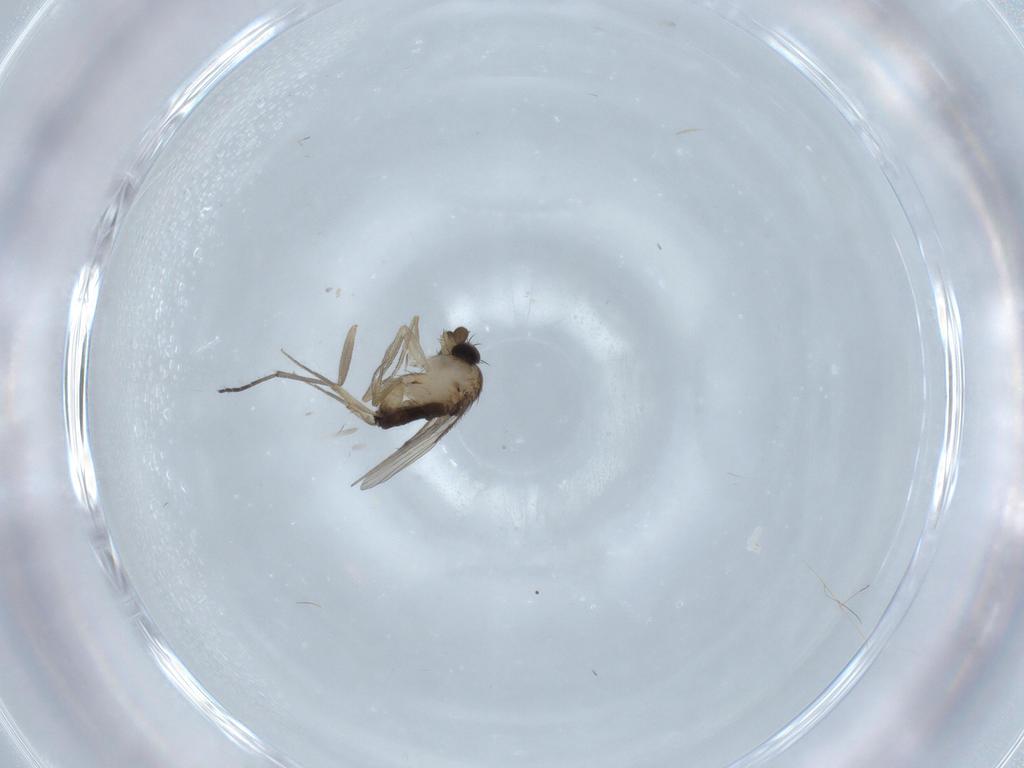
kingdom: Animalia
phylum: Arthropoda
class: Insecta
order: Diptera
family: Phoridae
